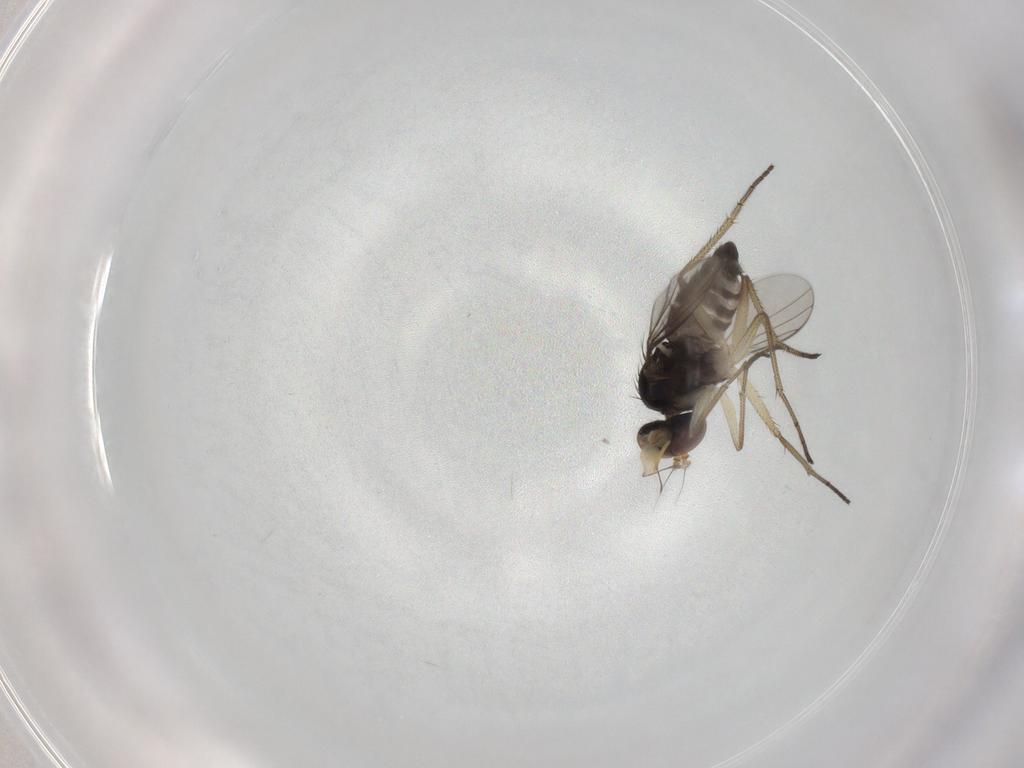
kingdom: Animalia
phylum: Arthropoda
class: Insecta
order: Diptera
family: Dolichopodidae
